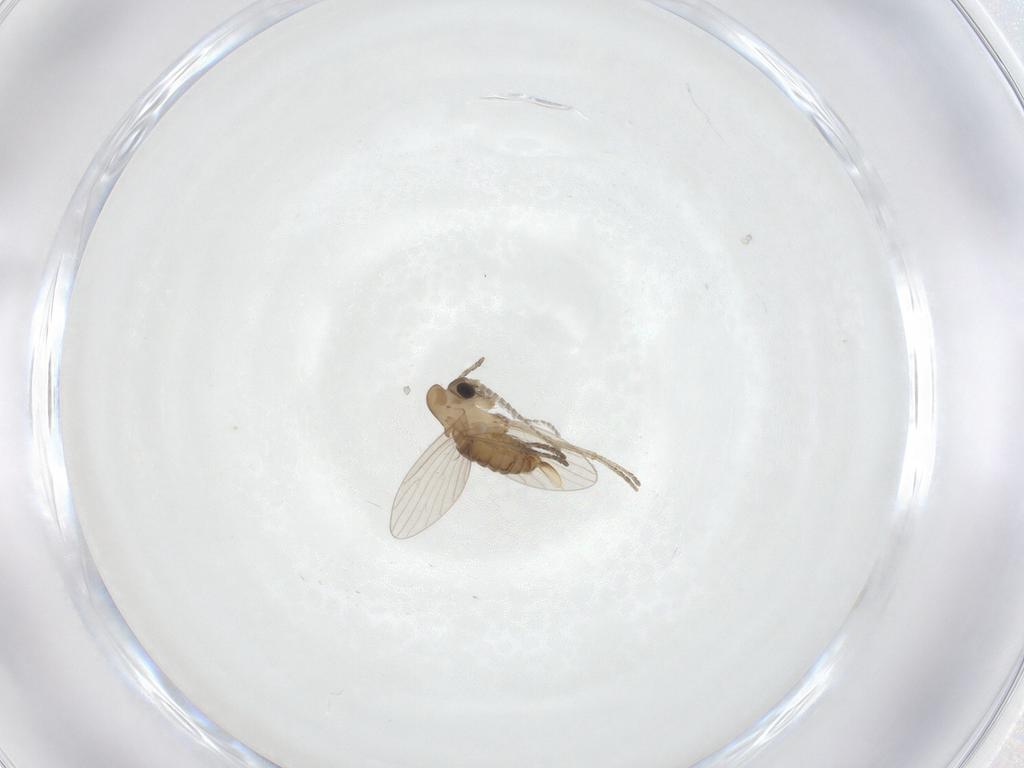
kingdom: Animalia
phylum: Arthropoda
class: Insecta
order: Diptera
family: Psychodidae
